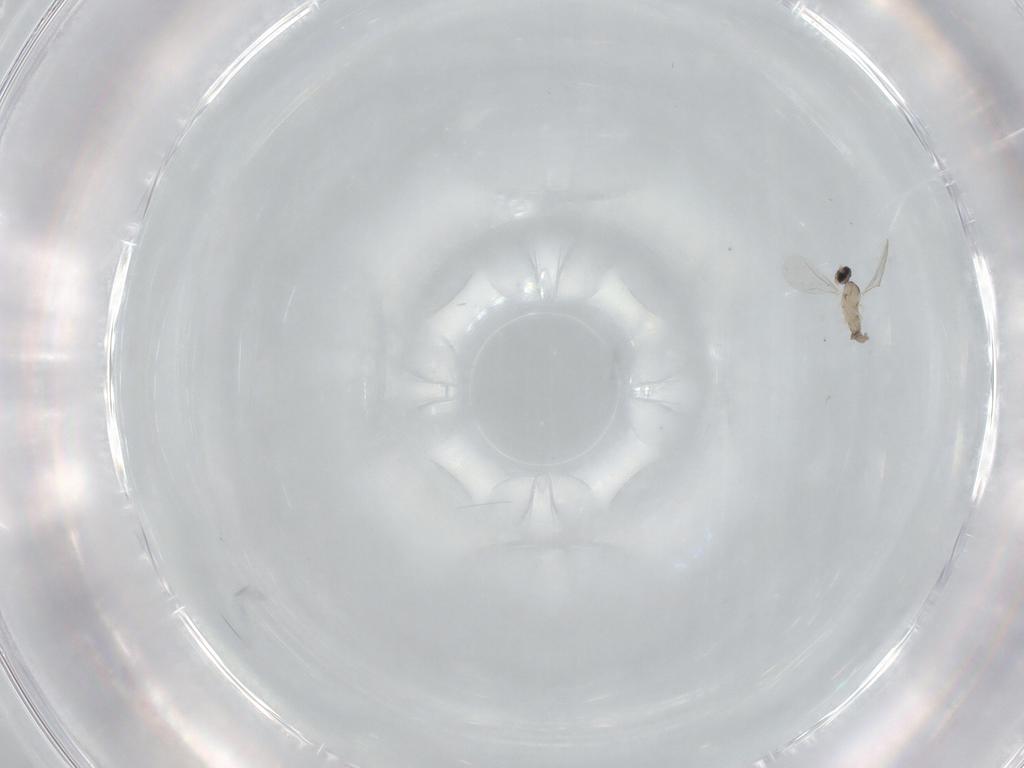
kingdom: Animalia
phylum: Arthropoda
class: Insecta
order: Diptera
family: Cecidomyiidae
